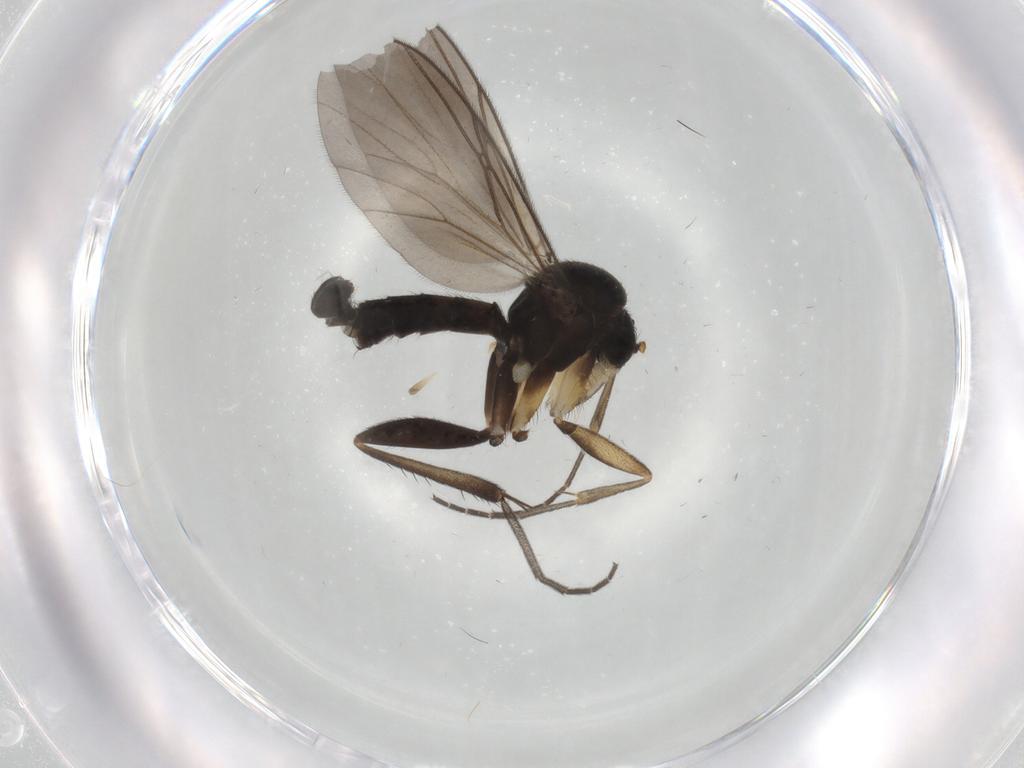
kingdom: Animalia
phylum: Arthropoda
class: Insecta
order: Diptera
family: Mycetophilidae
